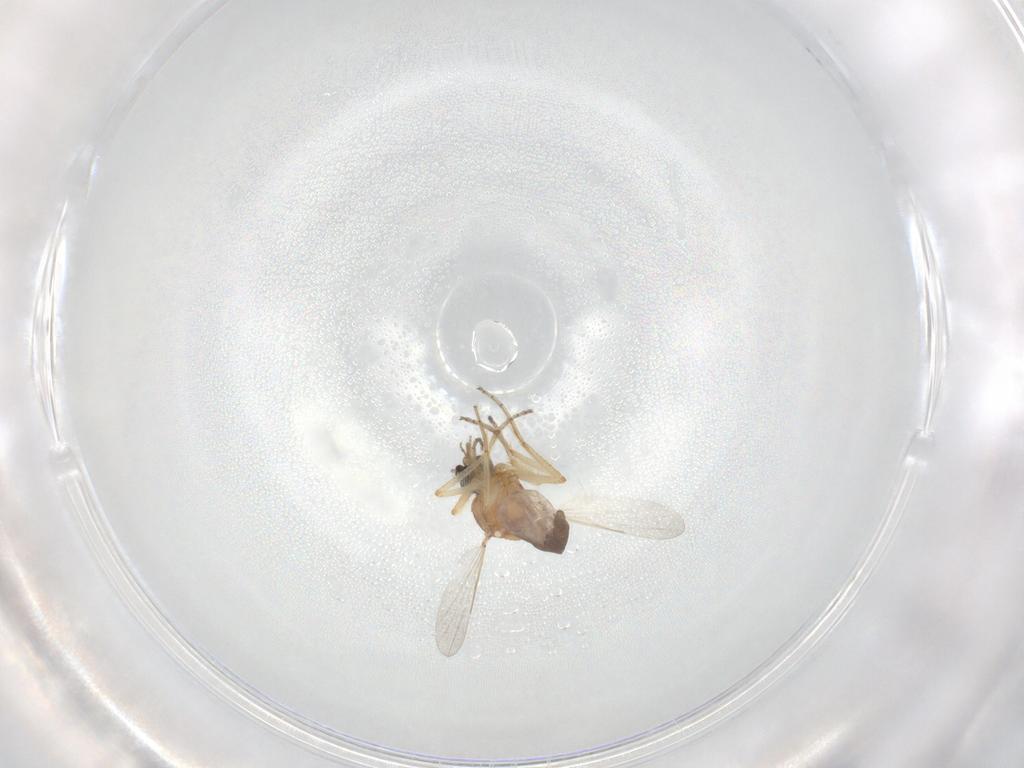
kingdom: Animalia
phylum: Arthropoda
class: Insecta
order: Diptera
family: Ceratopogonidae
